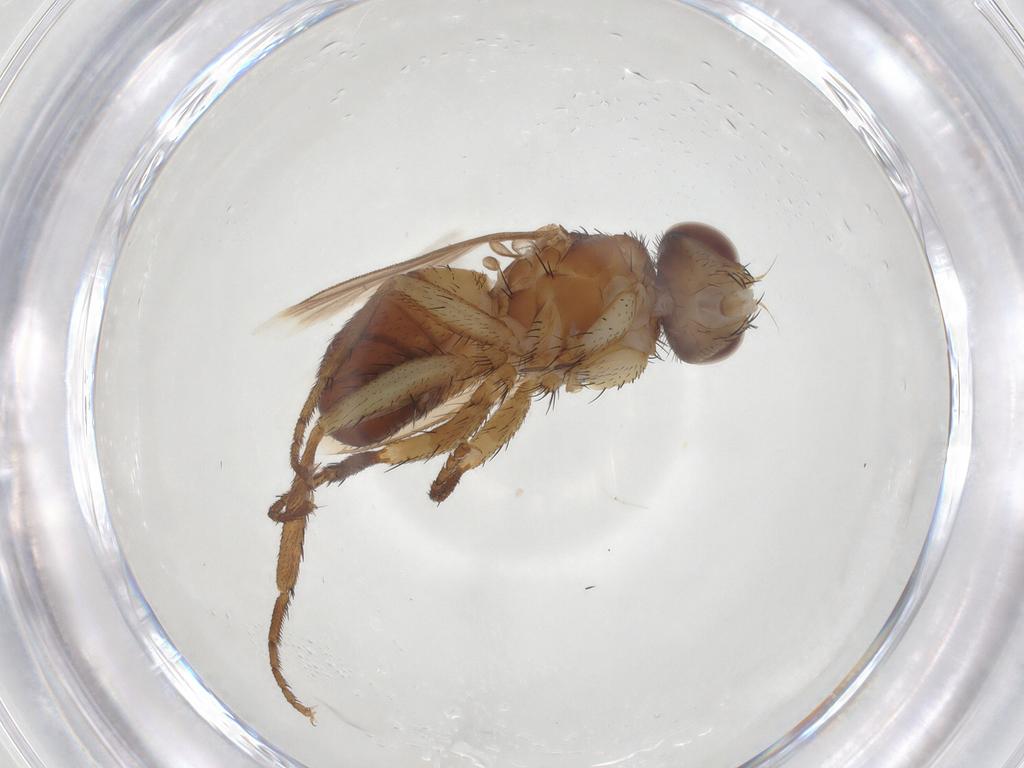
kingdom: Animalia
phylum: Arthropoda
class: Insecta
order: Diptera
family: Tachinidae
